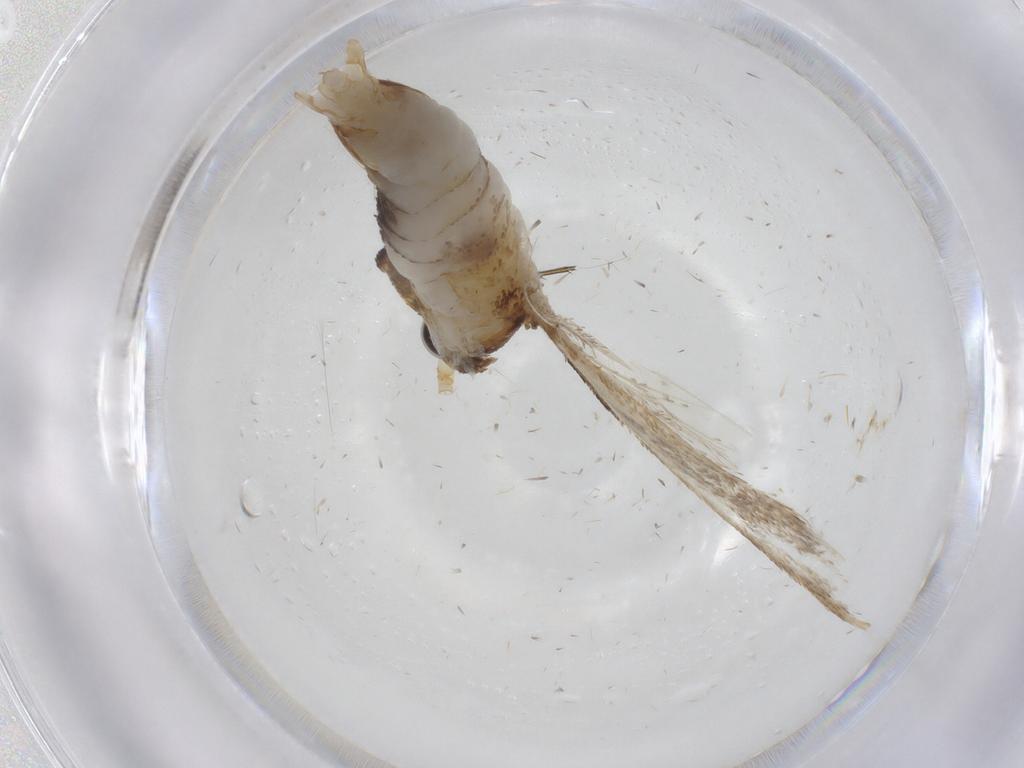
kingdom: Animalia
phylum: Arthropoda
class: Insecta
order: Lepidoptera
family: Erebidae
